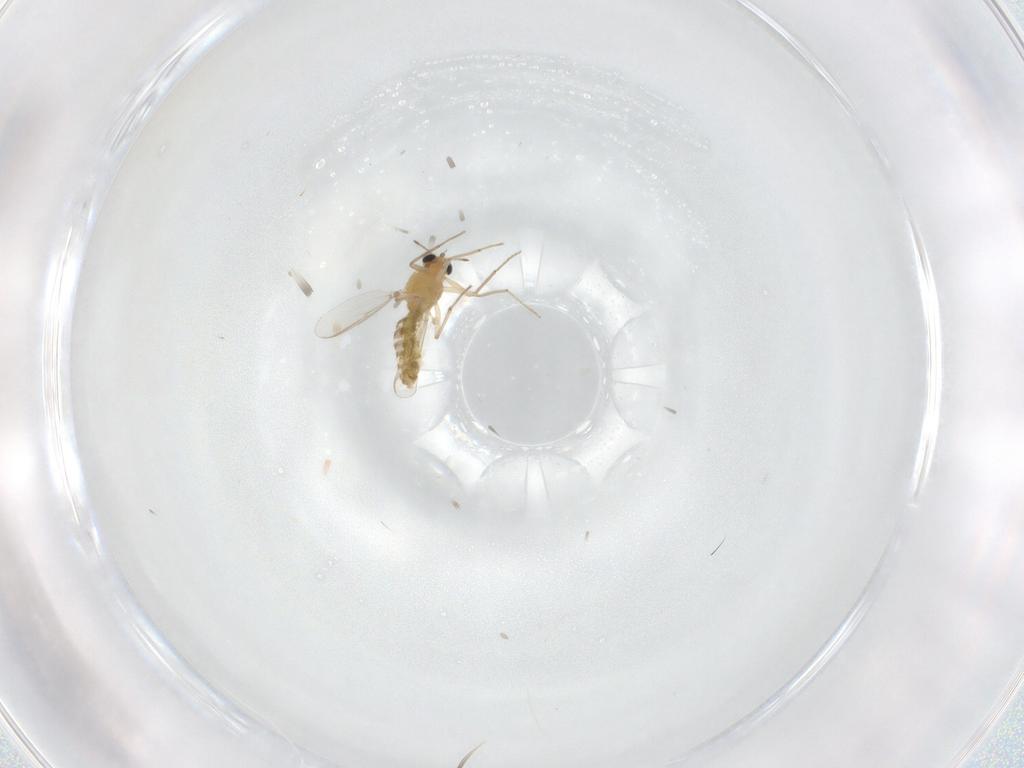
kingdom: Animalia
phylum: Arthropoda
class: Insecta
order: Diptera
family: Chironomidae
